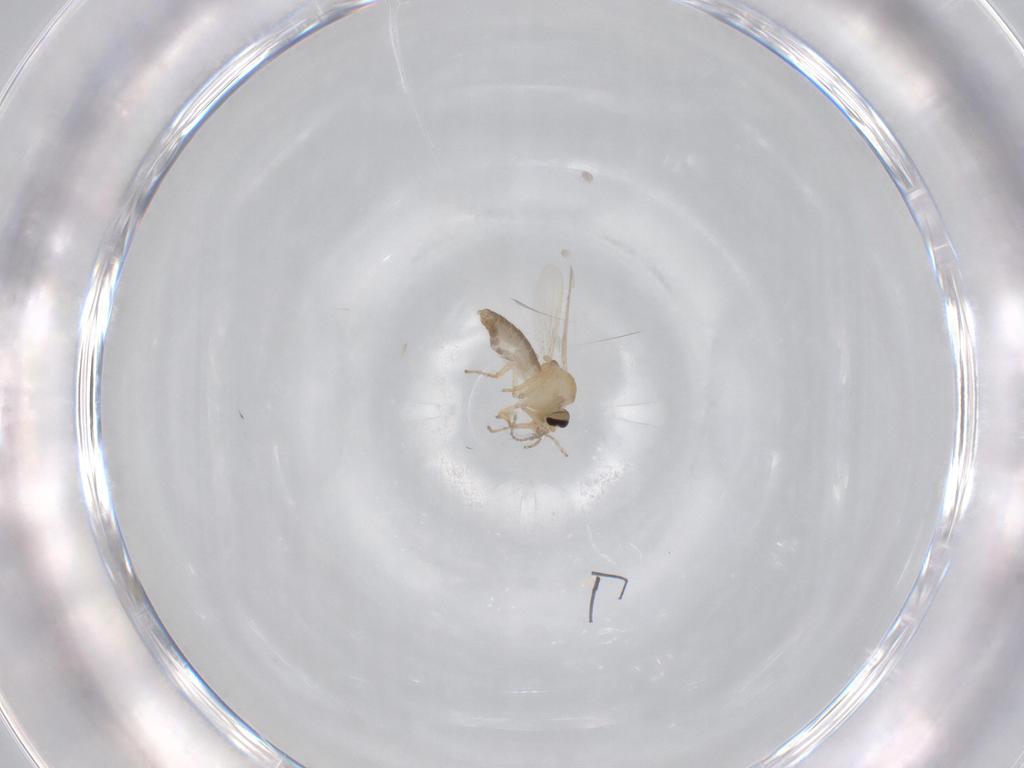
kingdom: Animalia
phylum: Arthropoda
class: Insecta
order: Diptera
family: Ceratopogonidae
